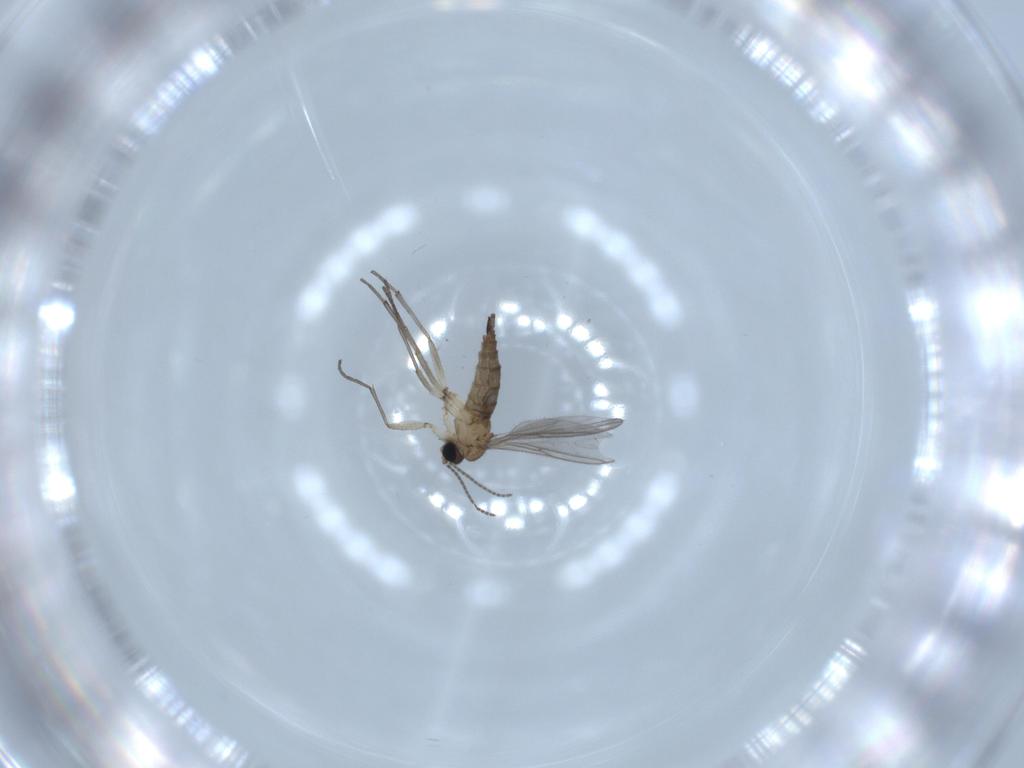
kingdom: Animalia
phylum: Arthropoda
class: Insecta
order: Diptera
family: Sciaridae
